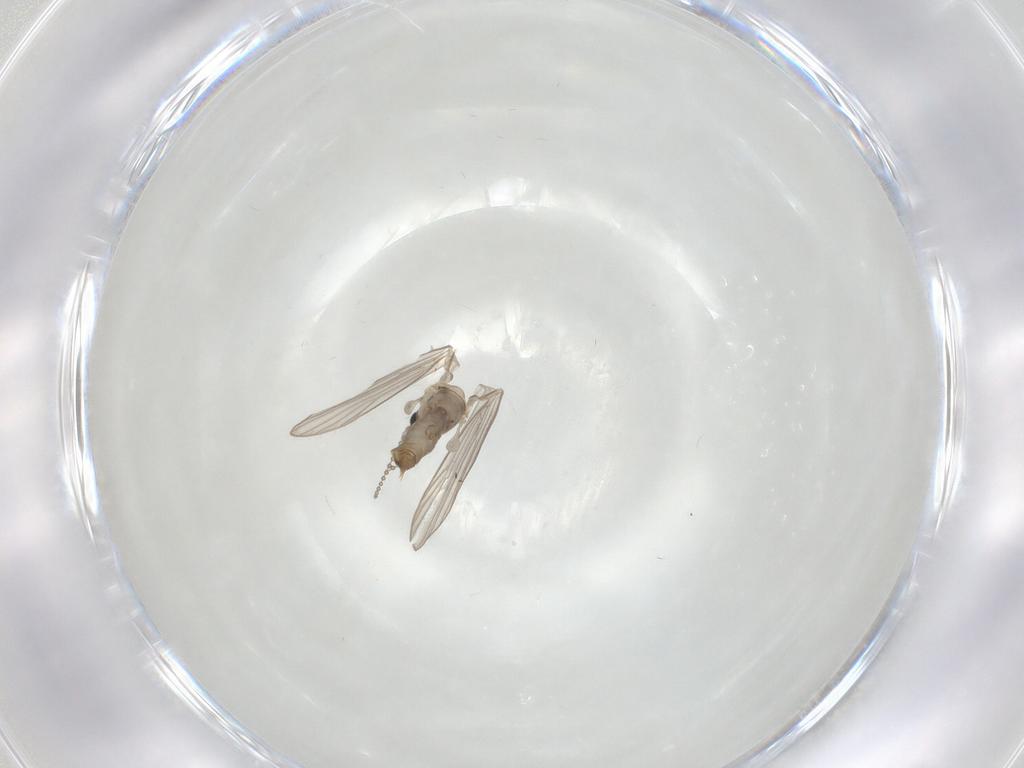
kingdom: Animalia
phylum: Arthropoda
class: Insecta
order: Diptera
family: Psychodidae
